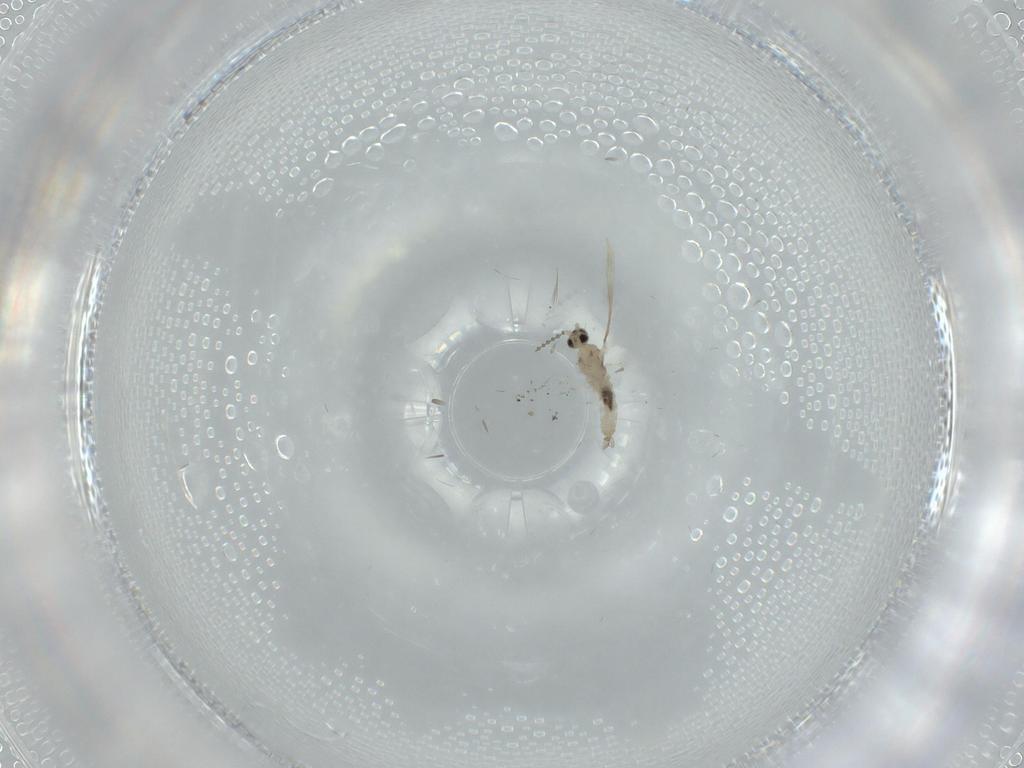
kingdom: Animalia
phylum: Arthropoda
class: Insecta
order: Diptera
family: Cecidomyiidae
